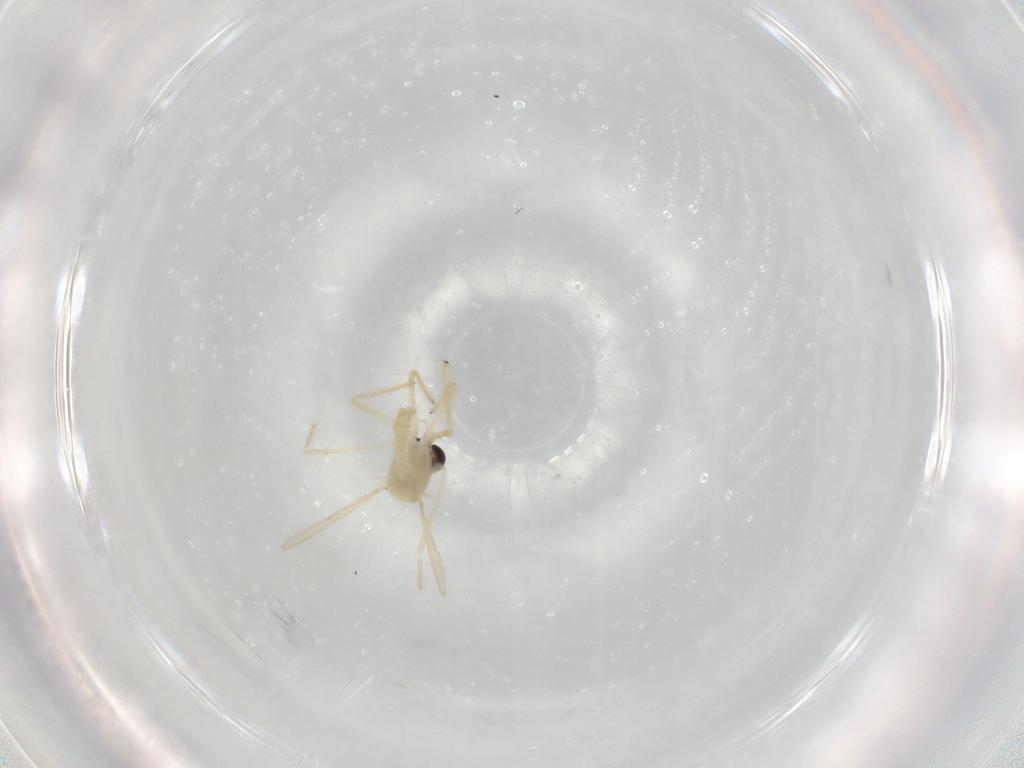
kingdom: Animalia
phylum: Arthropoda
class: Insecta
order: Diptera
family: Chironomidae
